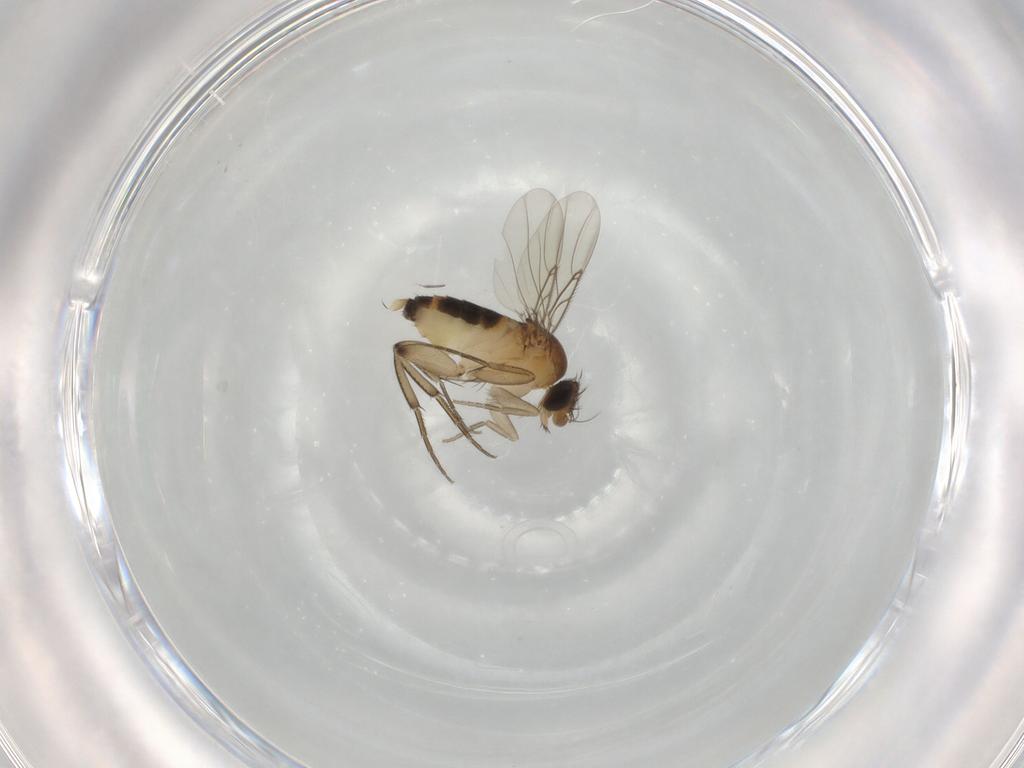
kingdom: Animalia
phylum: Arthropoda
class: Insecta
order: Diptera
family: Phoridae
